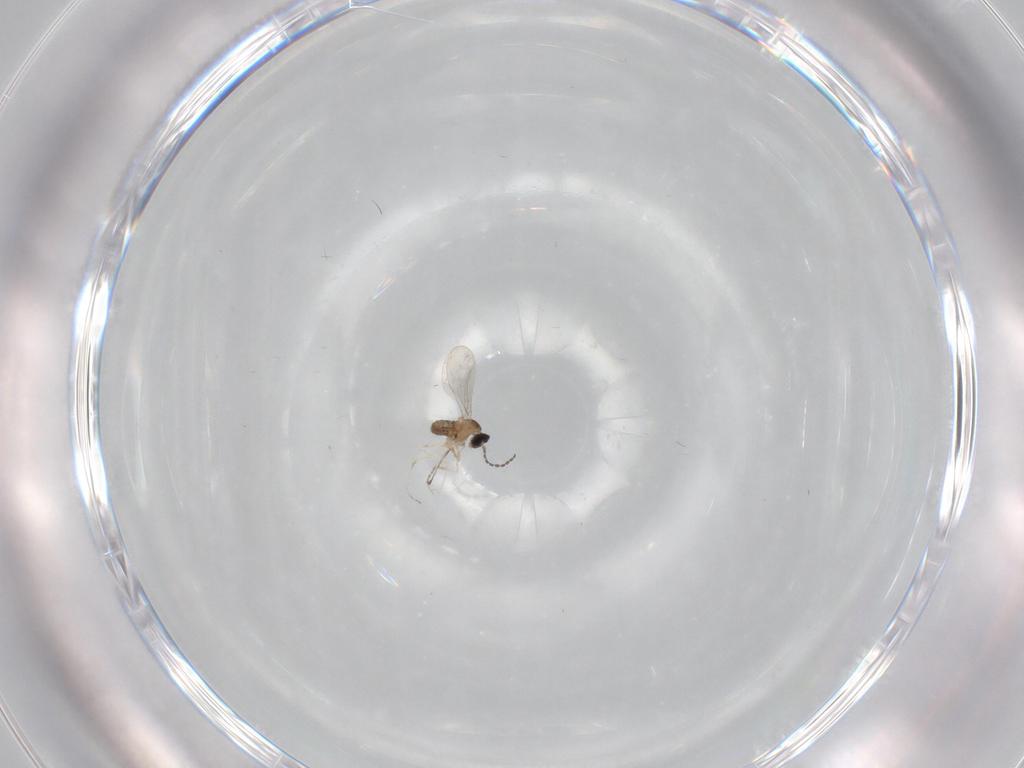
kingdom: Animalia
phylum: Arthropoda
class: Insecta
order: Diptera
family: Cecidomyiidae
